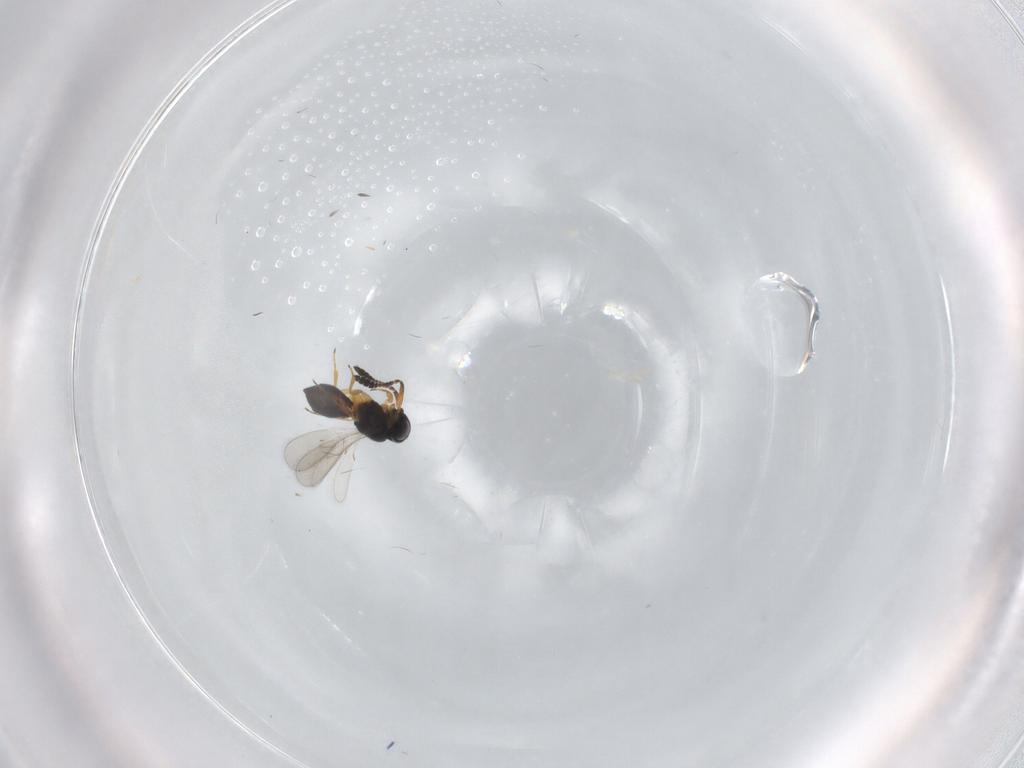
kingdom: Animalia
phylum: Arthropoda
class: Insecta
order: Hymenoptera
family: Scelionidae
